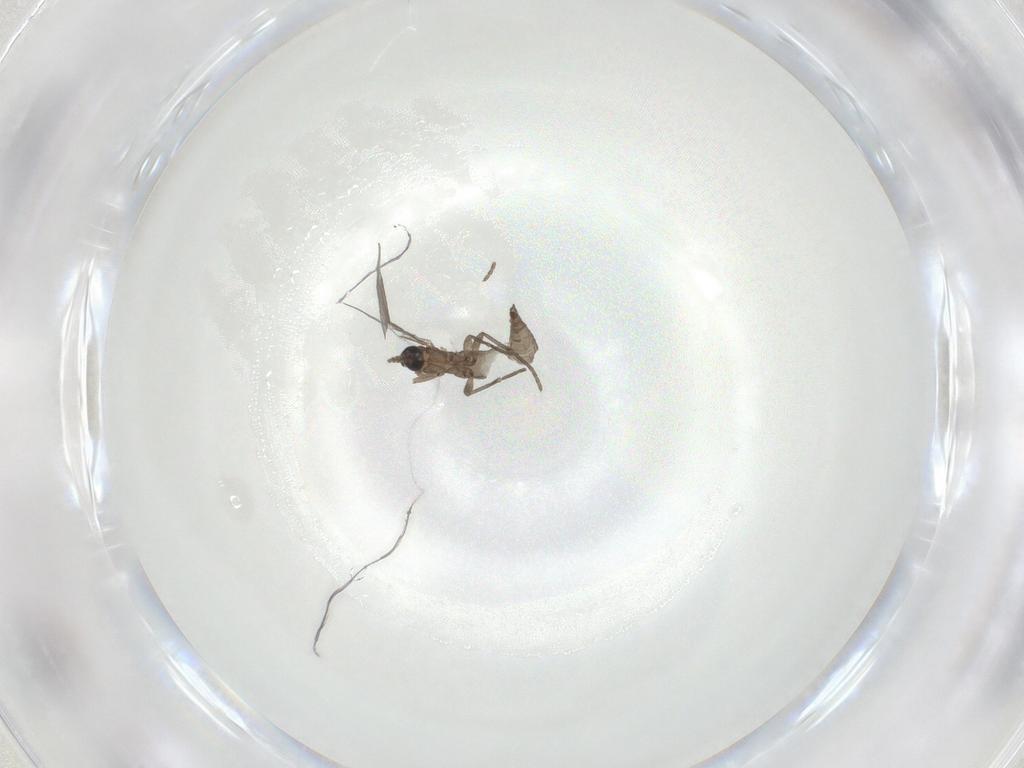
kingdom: Animalia
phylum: Arthropoda
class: Insecta
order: Diptera
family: Cecidomyiidae
